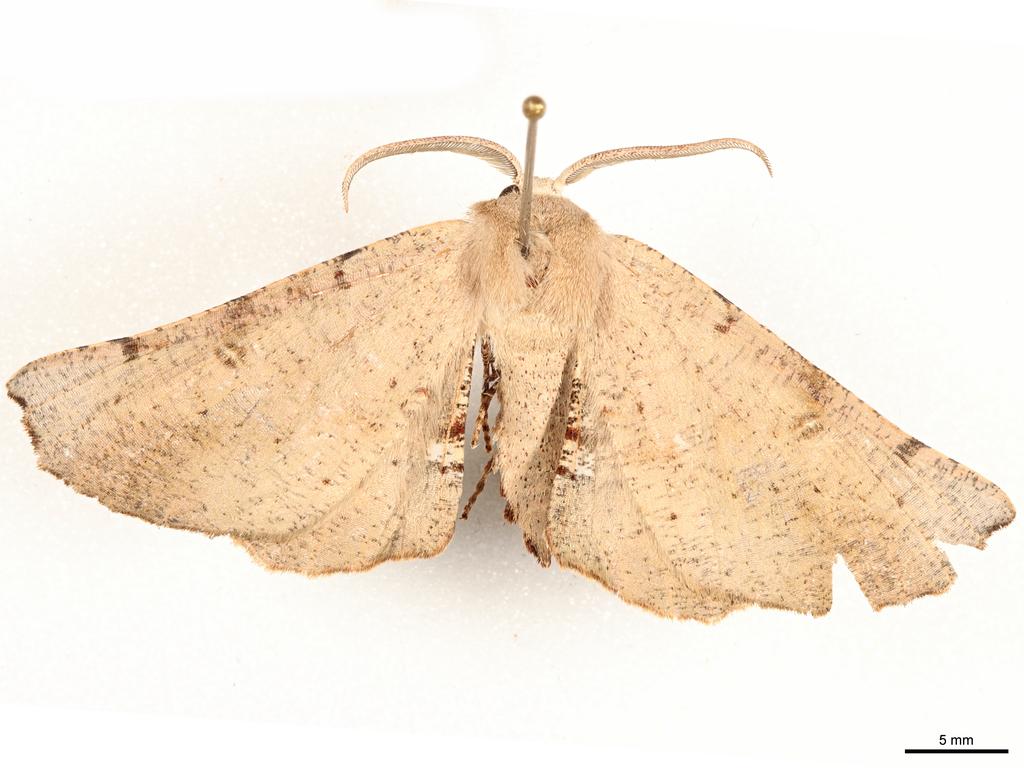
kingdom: Animalia
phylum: Arthropoda
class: Insecta
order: Lepidoptera
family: Geometridae
